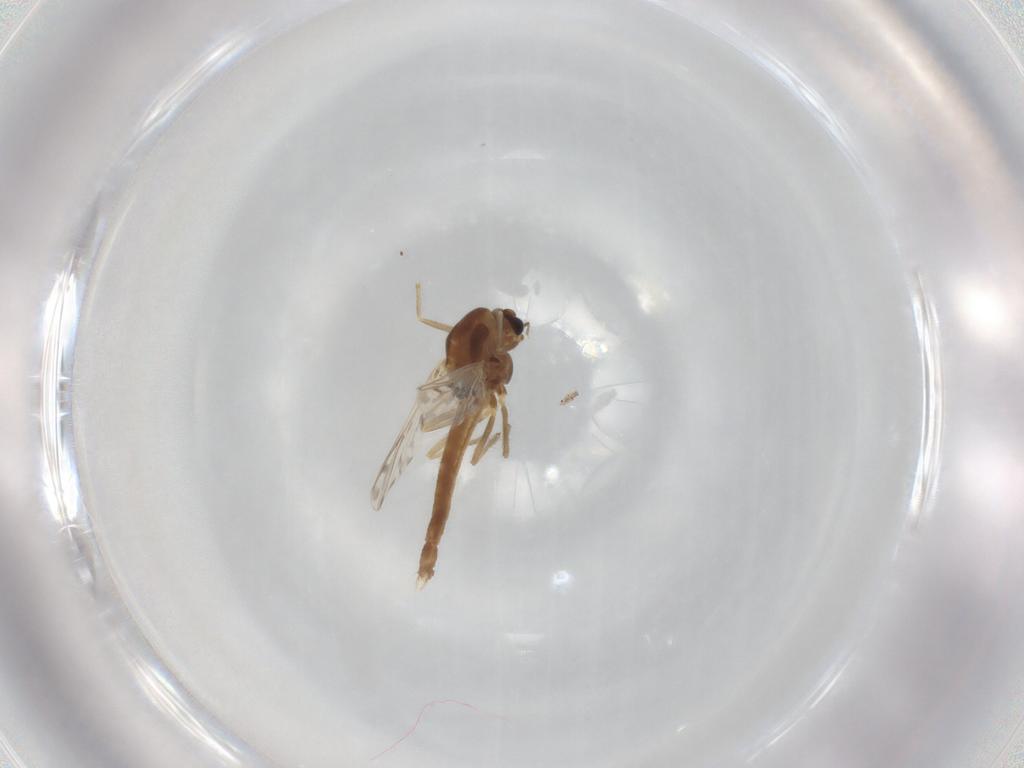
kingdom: Animalia
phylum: Arthropoda
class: Insecta
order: Diptera
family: Chironomidae
